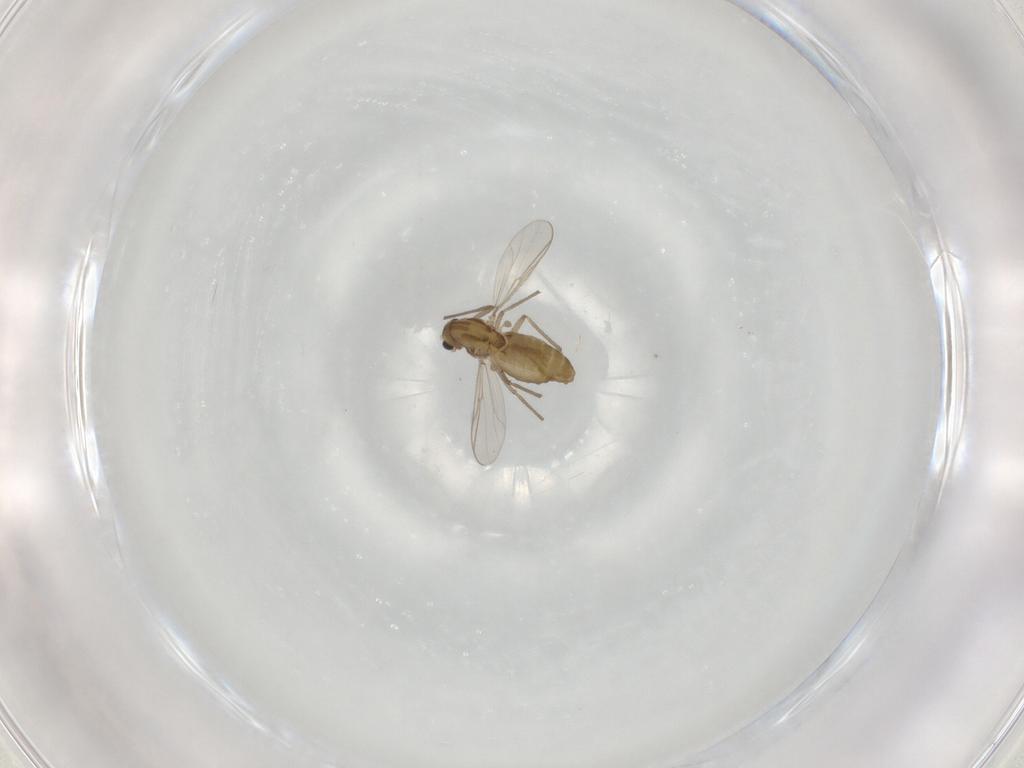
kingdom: Animalia
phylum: Arthropoda
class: Insecta
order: Diptera
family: Chironomidae
